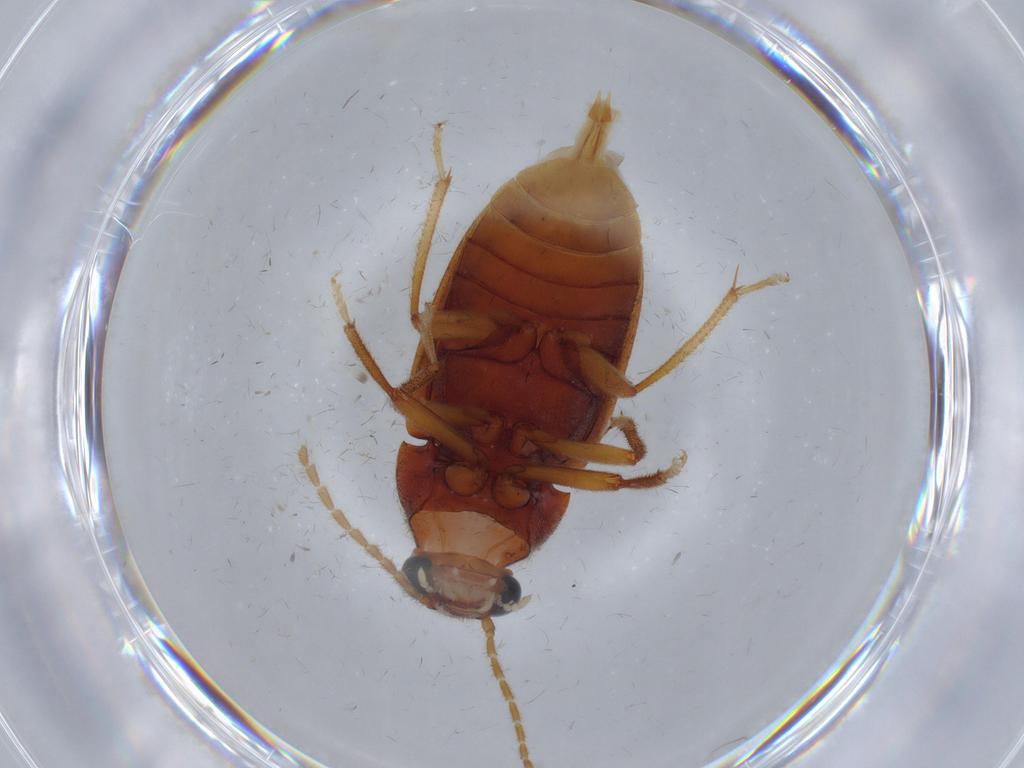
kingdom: Animalia
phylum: Arthropoda
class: Insecta
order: Coleoptera
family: Ptilodactylidae
